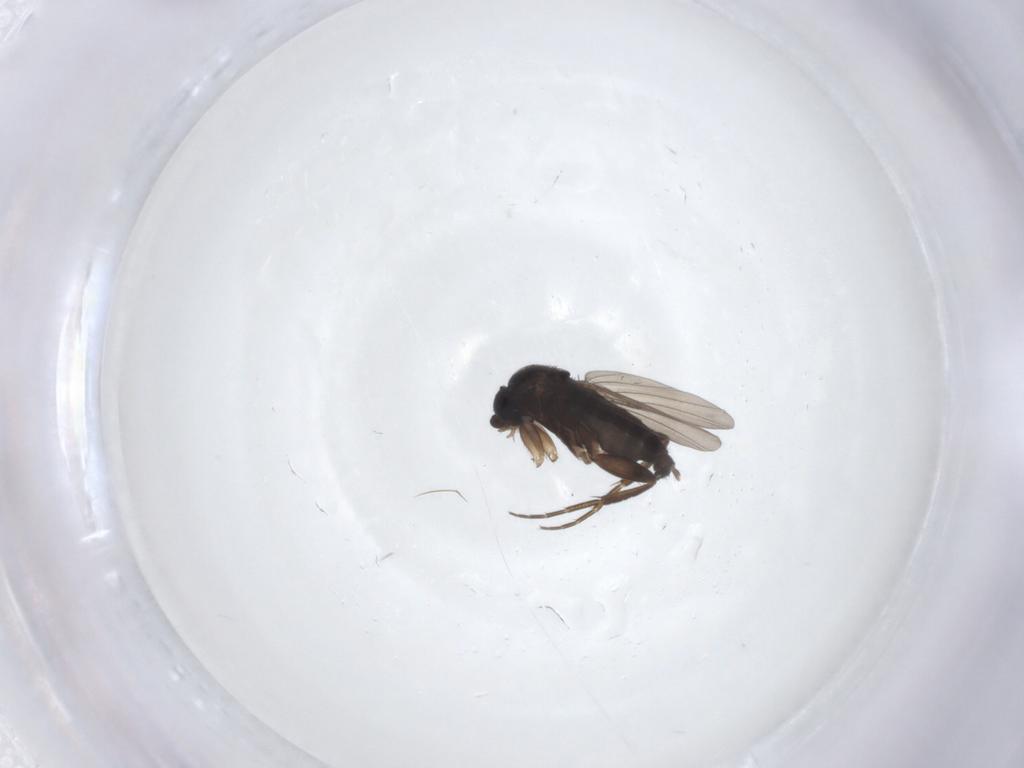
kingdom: Animalia
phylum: Arthropoda
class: Insecta
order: Diptera
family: Phoridae
